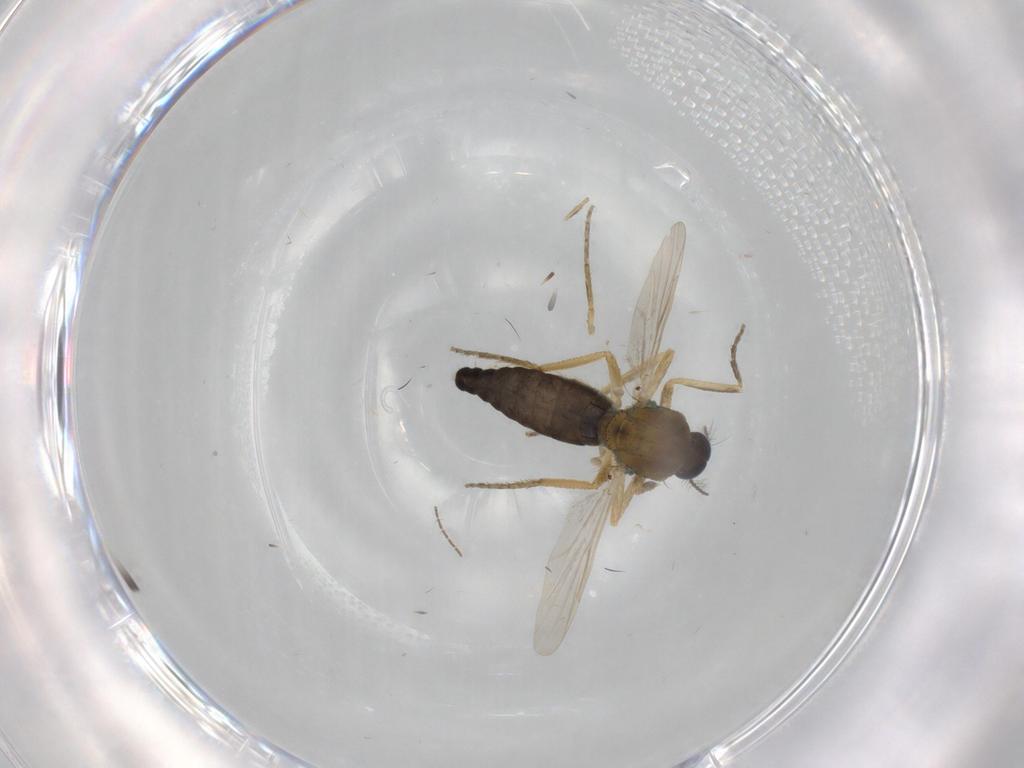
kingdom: Animalia
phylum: Arthropoda
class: Insecta
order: Diptera
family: Ceratopogonidae
